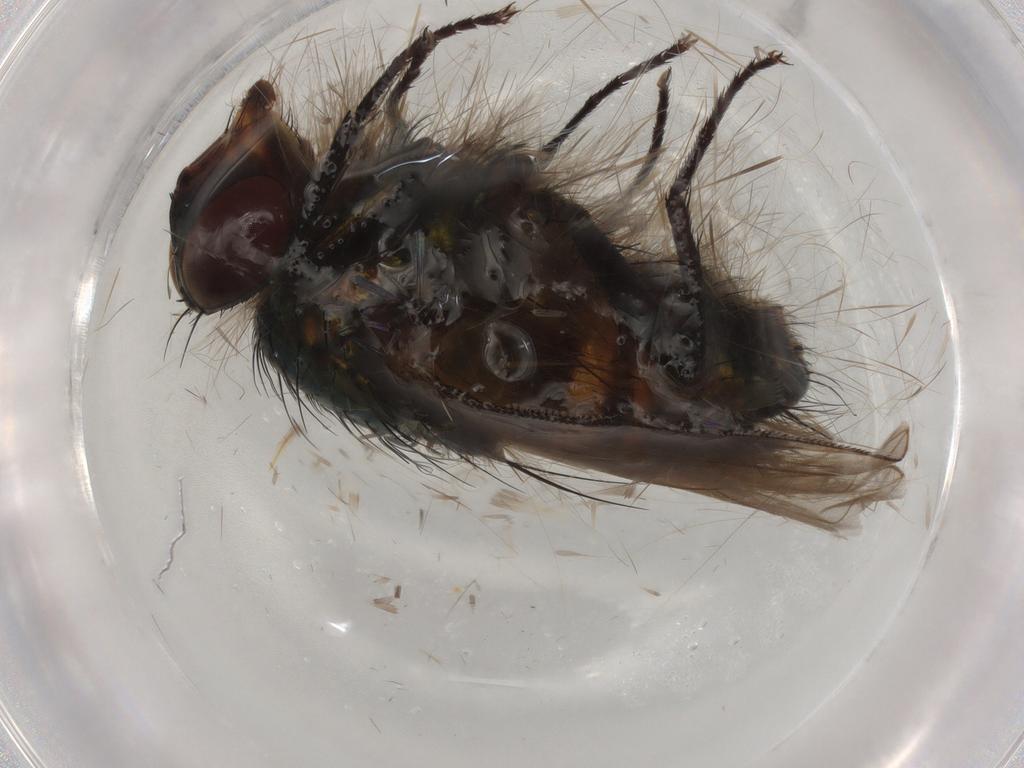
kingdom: Animalia
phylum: Arthropoda
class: Insecta
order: Diptera
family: Calliphoridae
